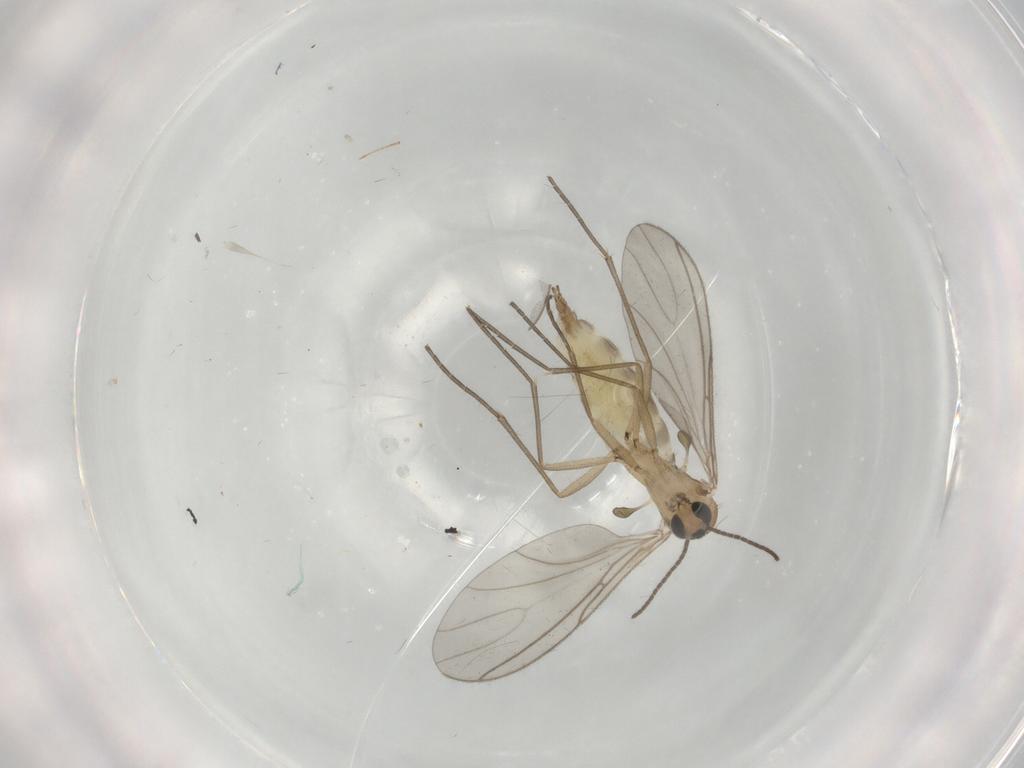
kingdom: Animalia
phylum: Arthropoda
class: Insecta
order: Diptera
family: Sciaridae
